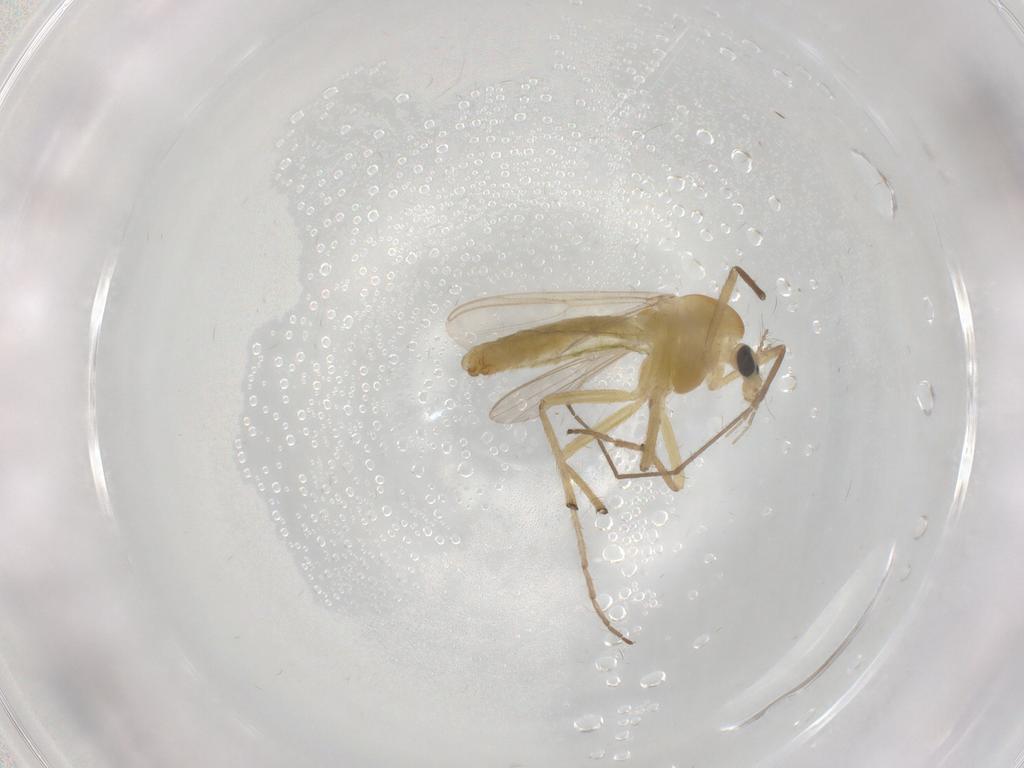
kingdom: Animalia
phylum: Arthropoda
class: Insecta
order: Diptera
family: Chironomidae
